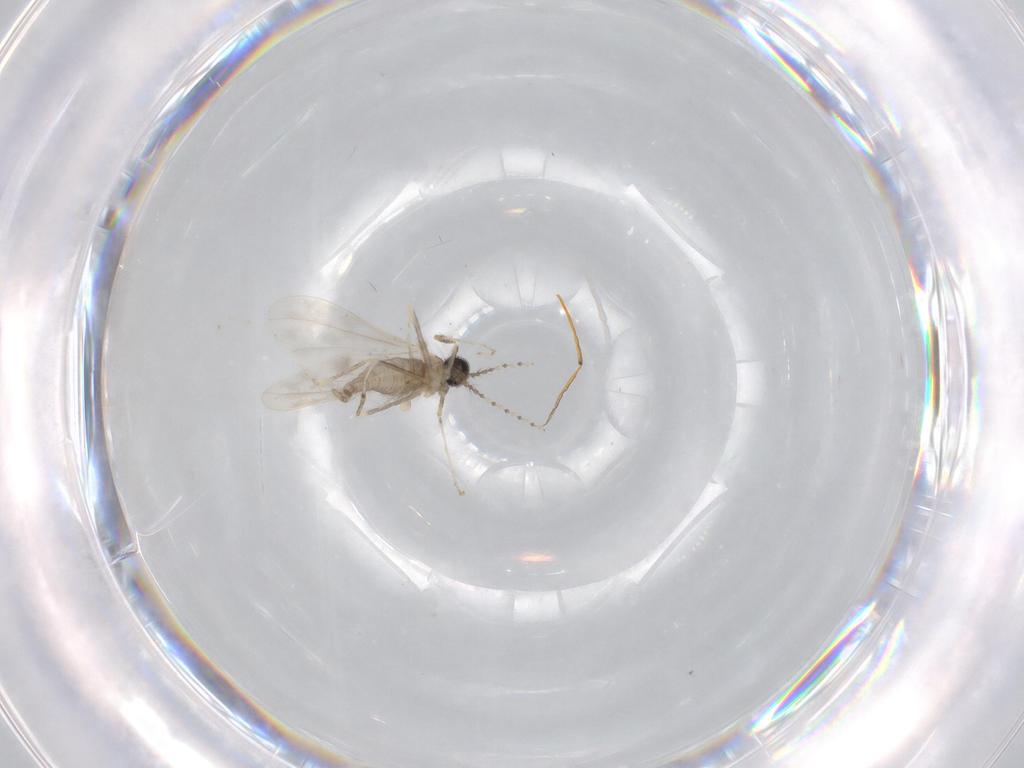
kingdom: Animalia
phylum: Arthropoda
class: Insecta
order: Diptera
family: Cecidomyiidae
